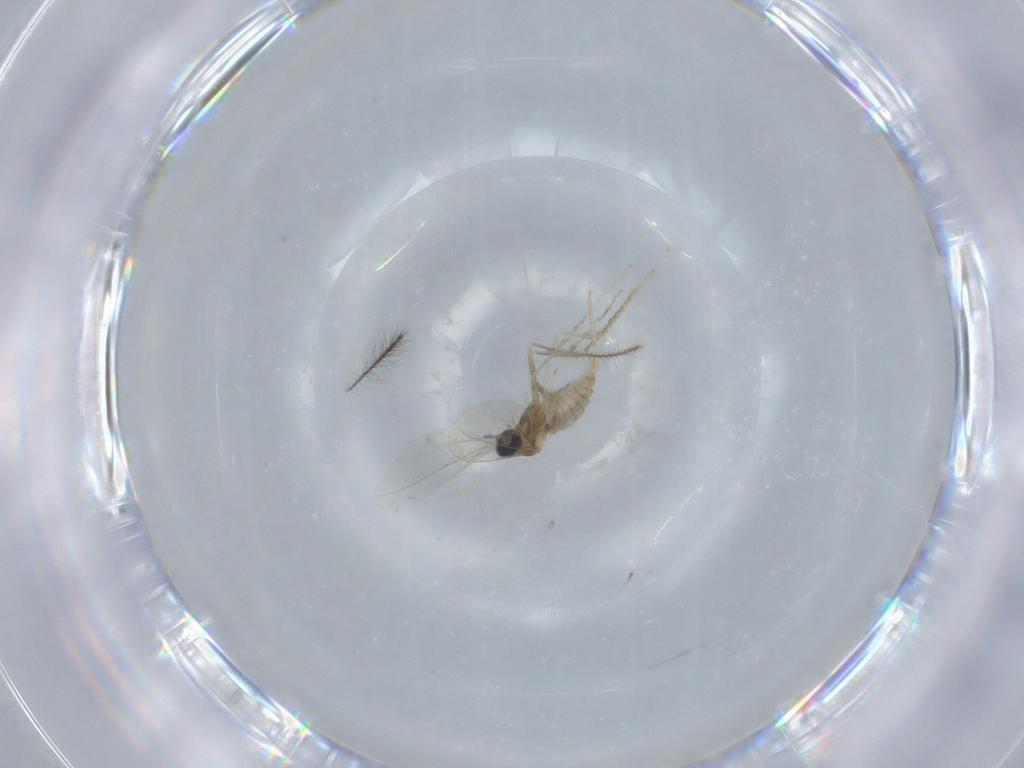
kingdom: Animalia
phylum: Arthropoda
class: Insecta
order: Diptera
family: Cecidomyiidae
